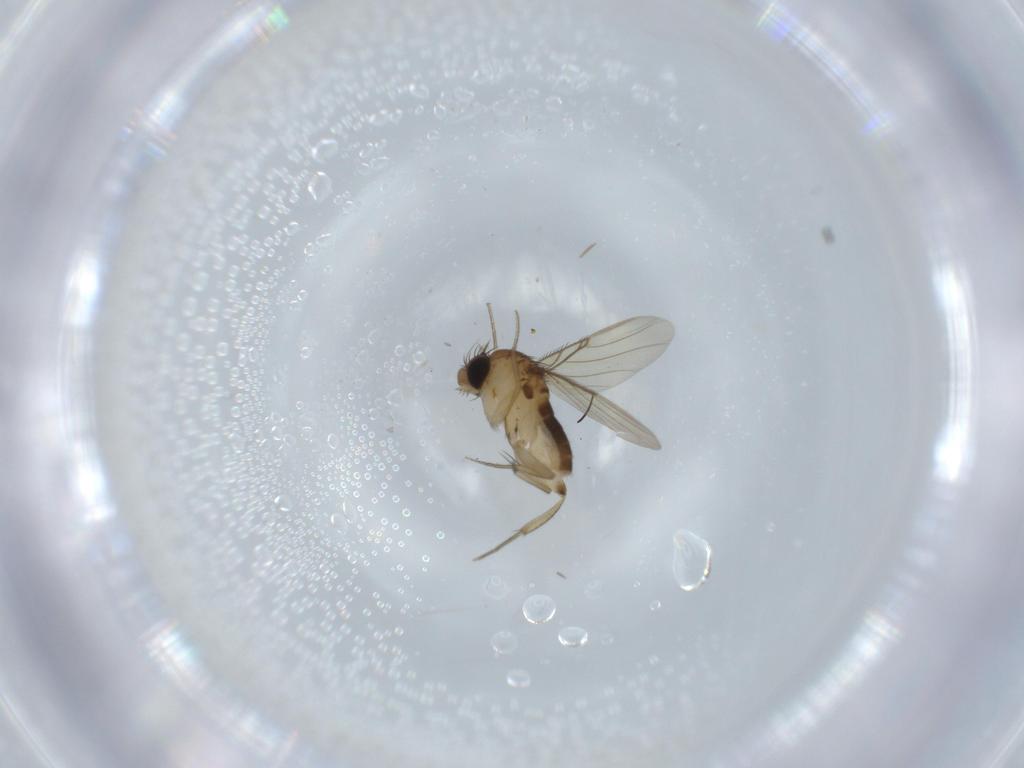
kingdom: Animalia
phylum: Arthropoda
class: Insecta
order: Diptera
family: Phoridae
